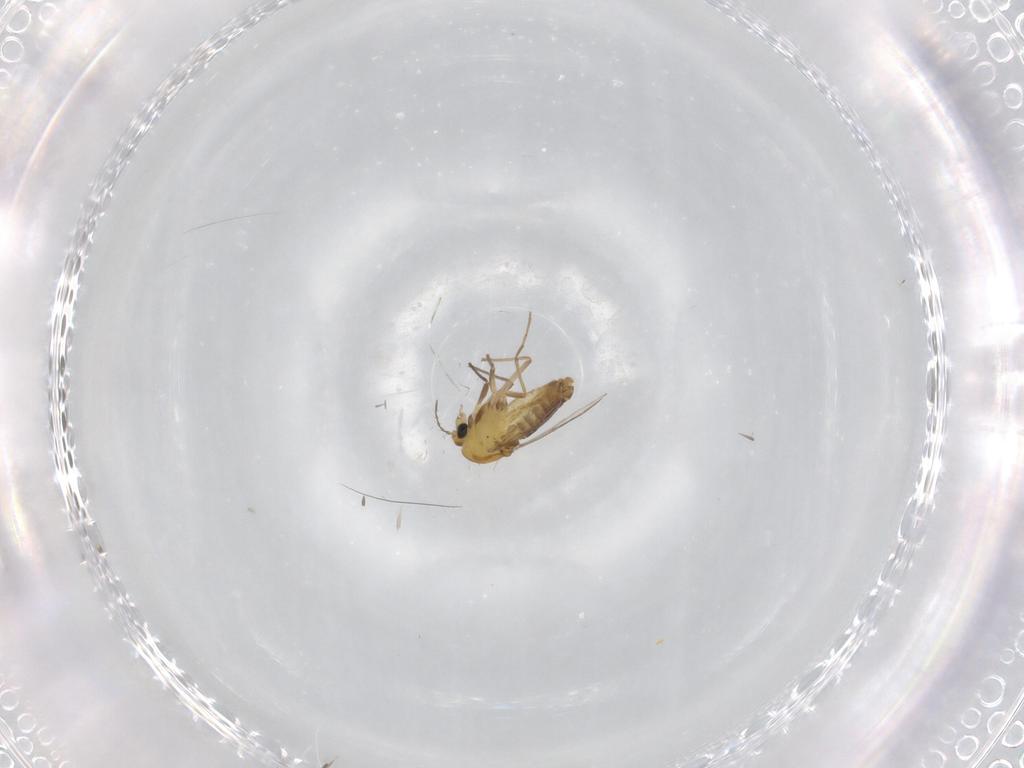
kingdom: Animalia
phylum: Arthropoda
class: Insecta
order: Diptera
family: Chironomidae
